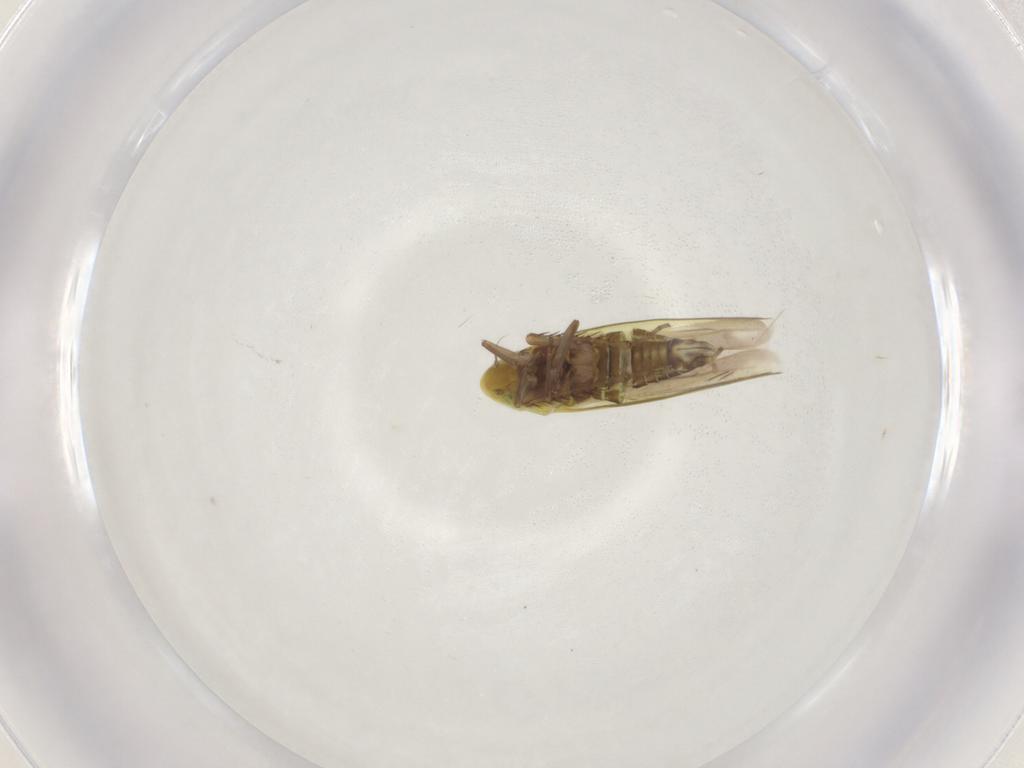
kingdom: Animalia
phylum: Arthropoda
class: Insecta
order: Hemiptera
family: Cicadellidae
